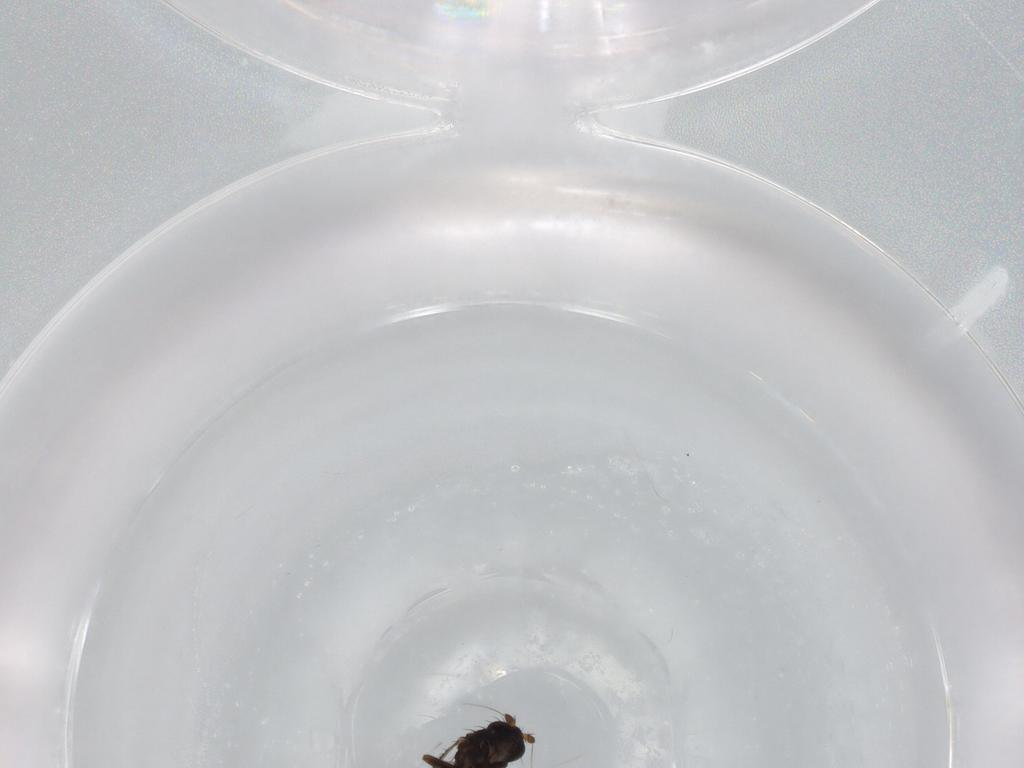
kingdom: Animalia
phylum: Arthropoda
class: Insecta
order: Diptera
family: Sphaeroceridae
